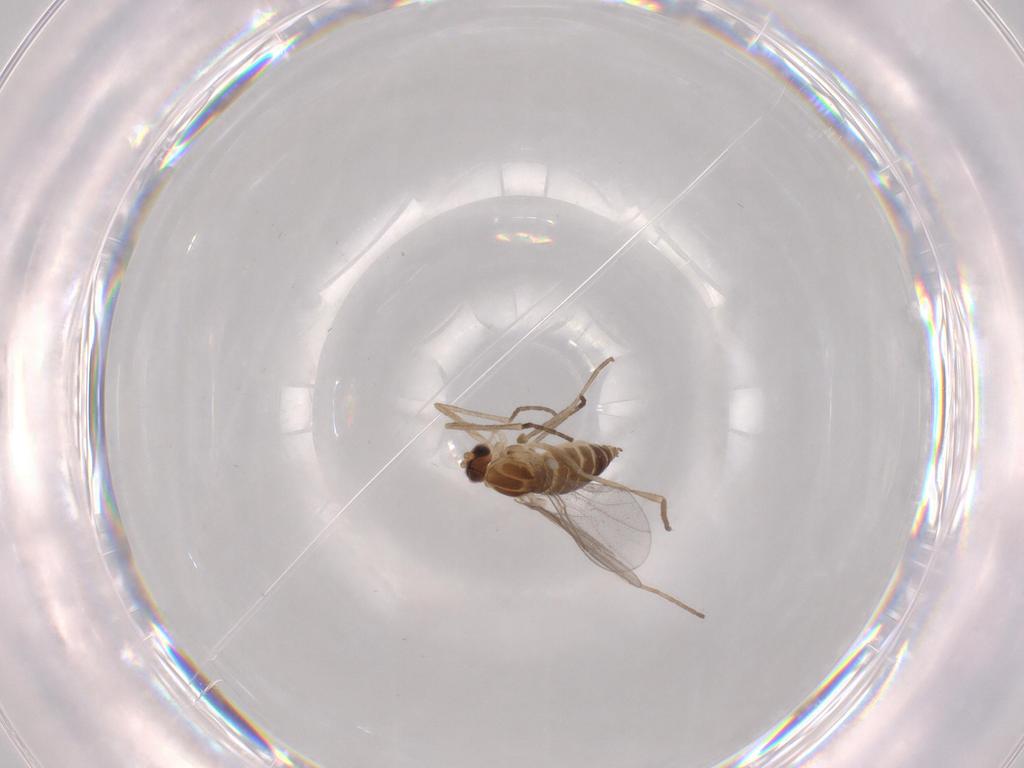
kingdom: Animalia
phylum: Arthropoda
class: Insecta
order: Diptera
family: Cecidomyiidae
